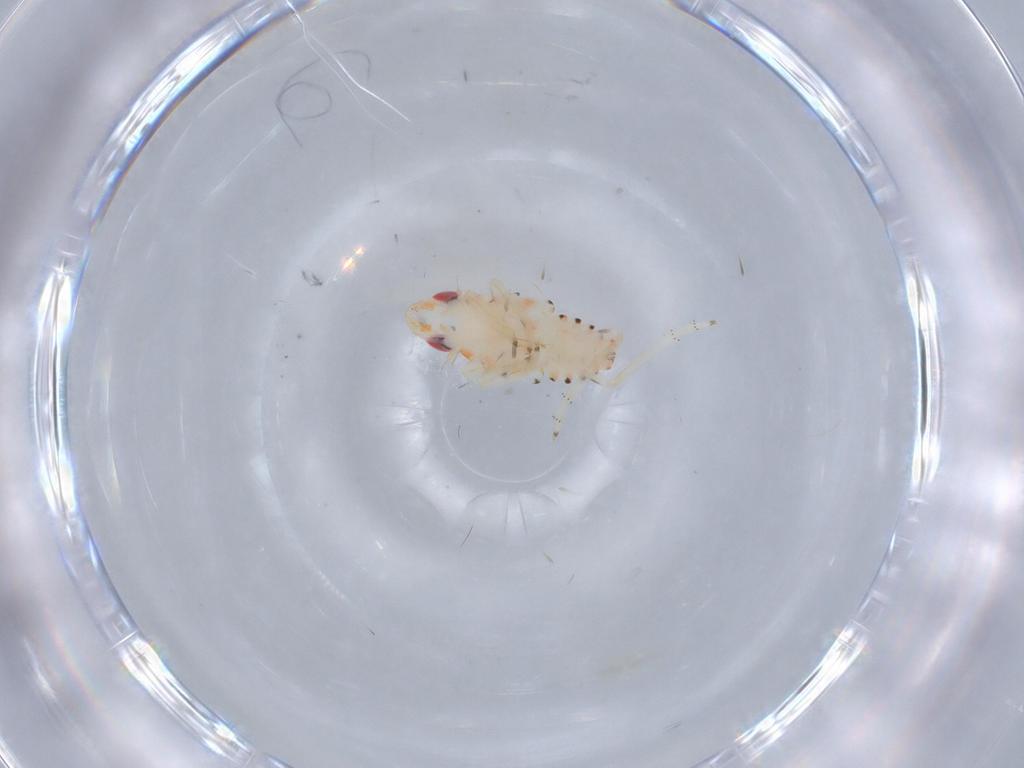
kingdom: Animalia
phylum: Arthropoda
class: Insecta
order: Hemiptera
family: Tropiduchidae
